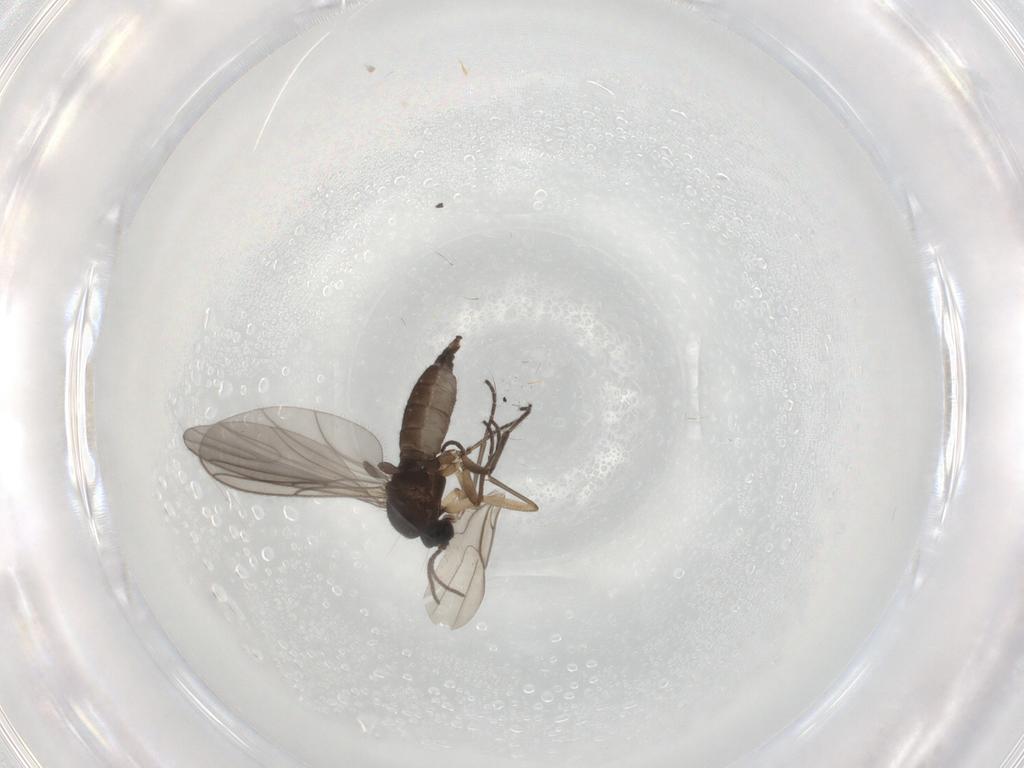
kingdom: Animalia
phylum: Arthropoda
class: Insecta
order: Diptera
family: Sciaridae
